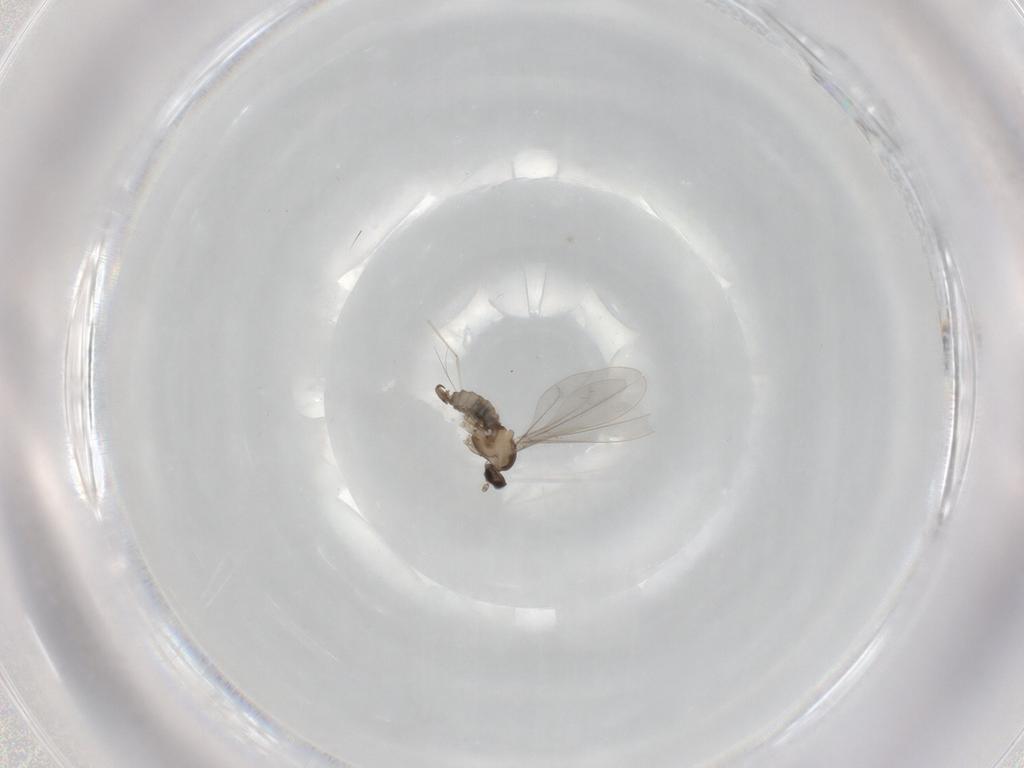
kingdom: Animalia
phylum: Arthropoda
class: Insecta
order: Diptera
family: Cecidomyiidae
